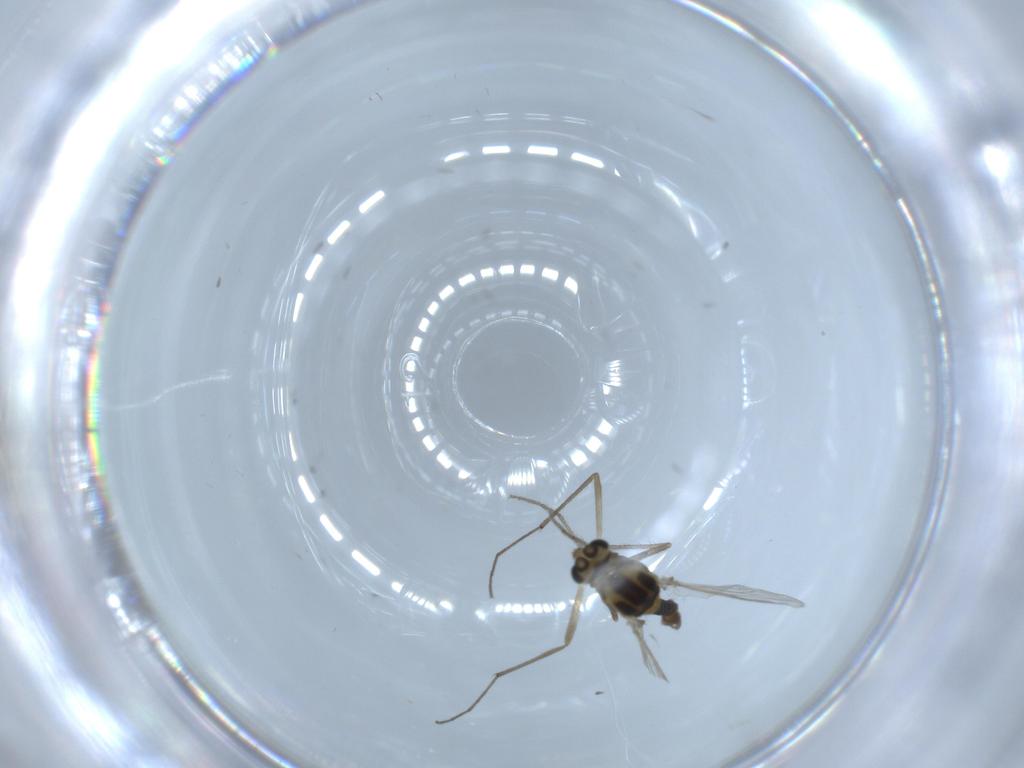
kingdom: Animalia
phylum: Arthropoda
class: Insecta
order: Diptera
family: Chironomidae
